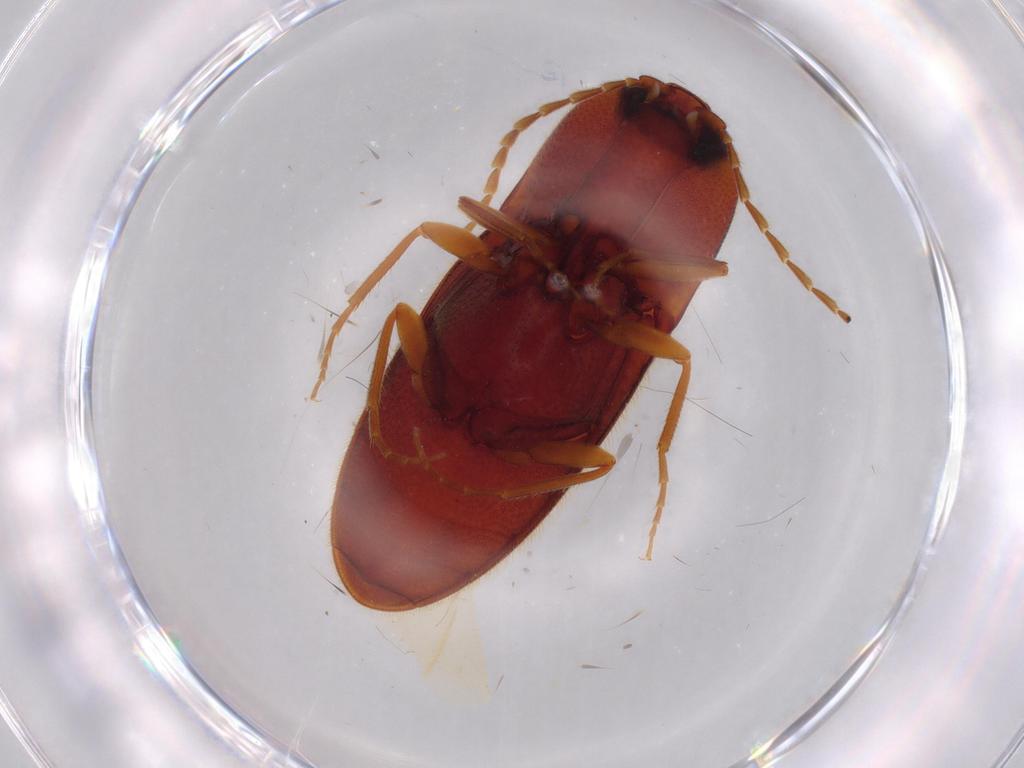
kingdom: Animalia
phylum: Arthropoda
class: Insecta
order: Coleoptera
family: Elateridae
